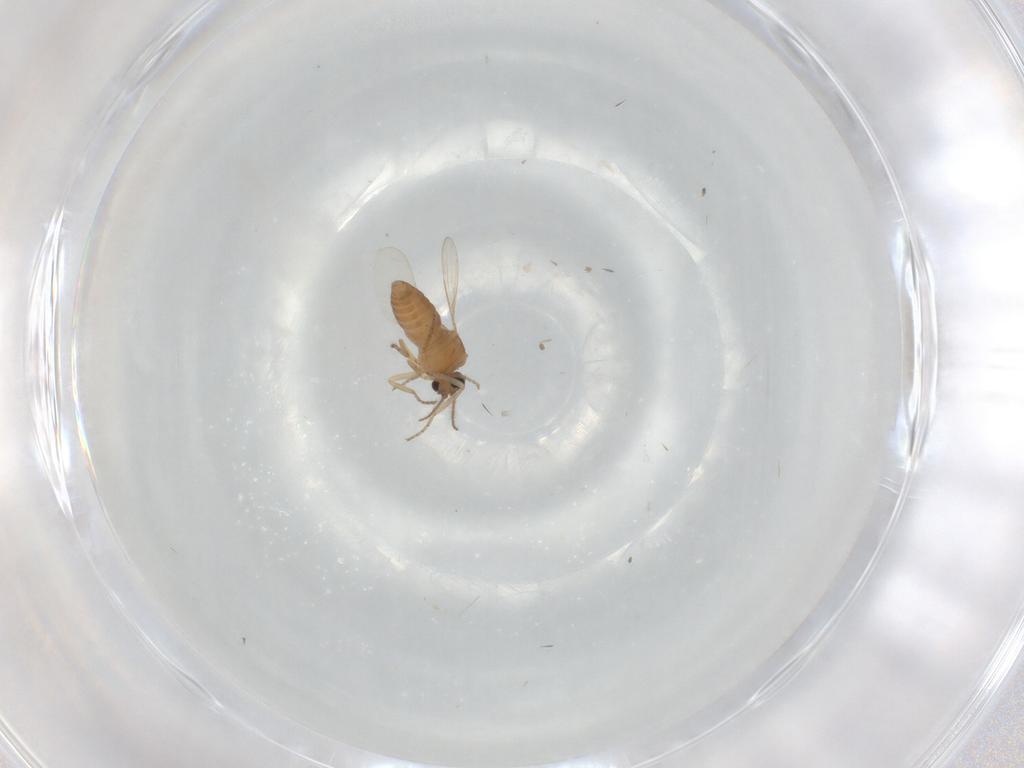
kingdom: Animalia
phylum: Arthropoda
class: Insecta
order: Diptera
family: Ceratopogonidae
